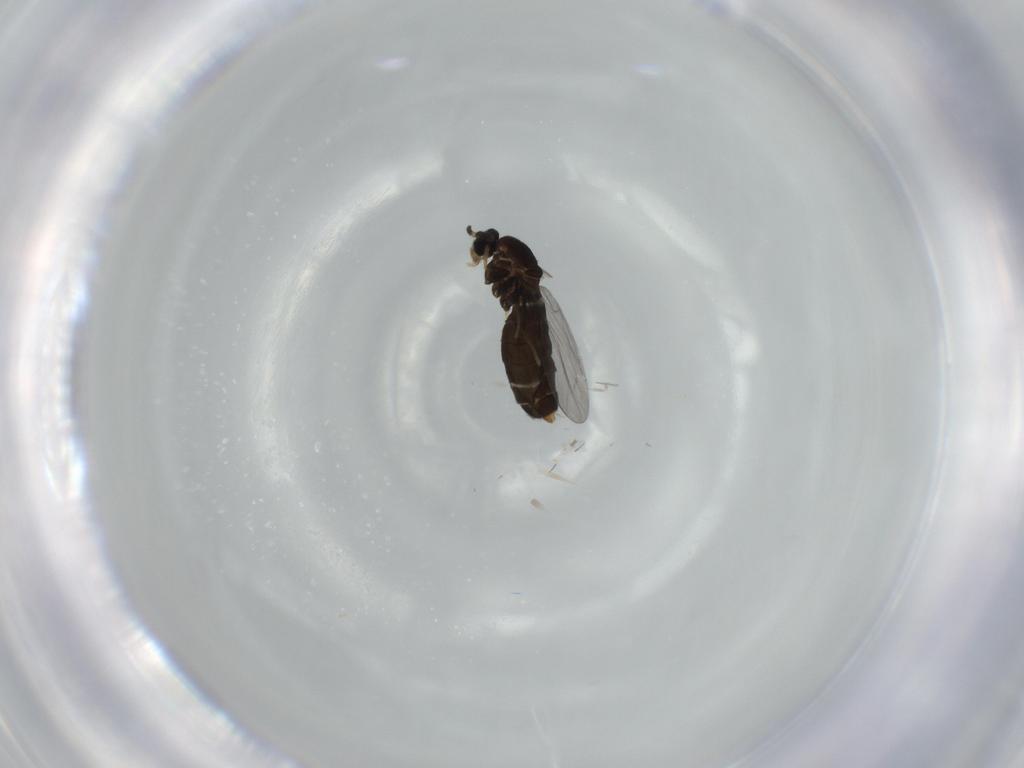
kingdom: Animalia
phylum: Arthropoda
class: Insecta
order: Diptera
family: Scatopsidae
